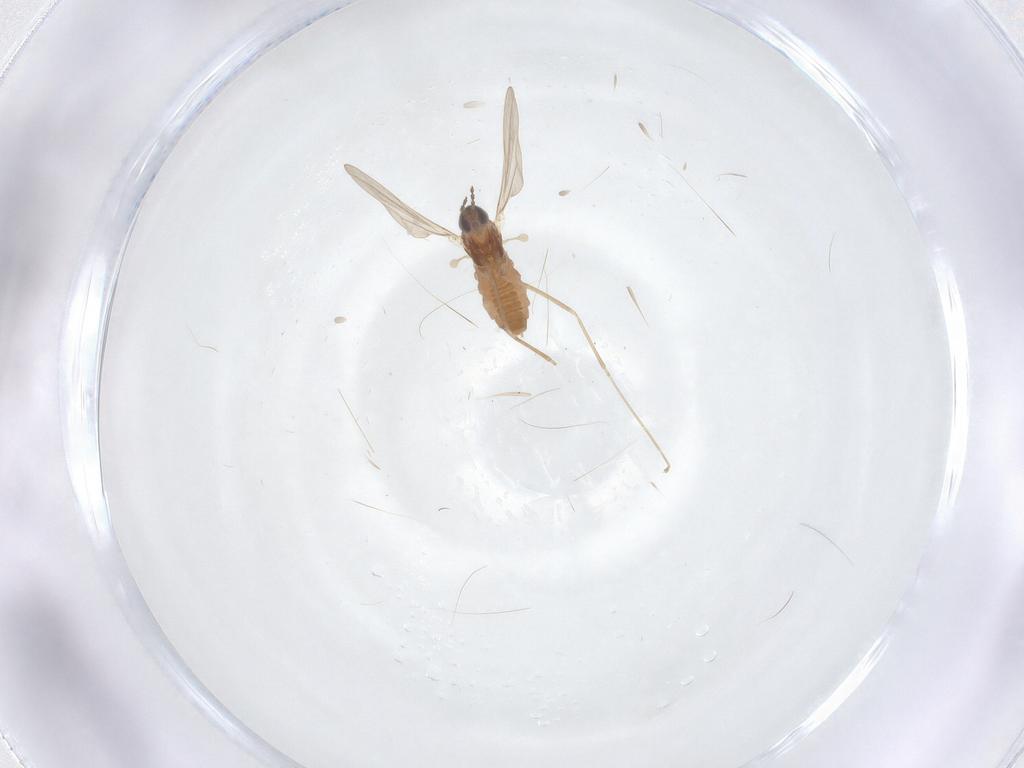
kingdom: Animalia
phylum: Arthropoda
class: Insecta
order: Diptera
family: Cecidomyiidae
